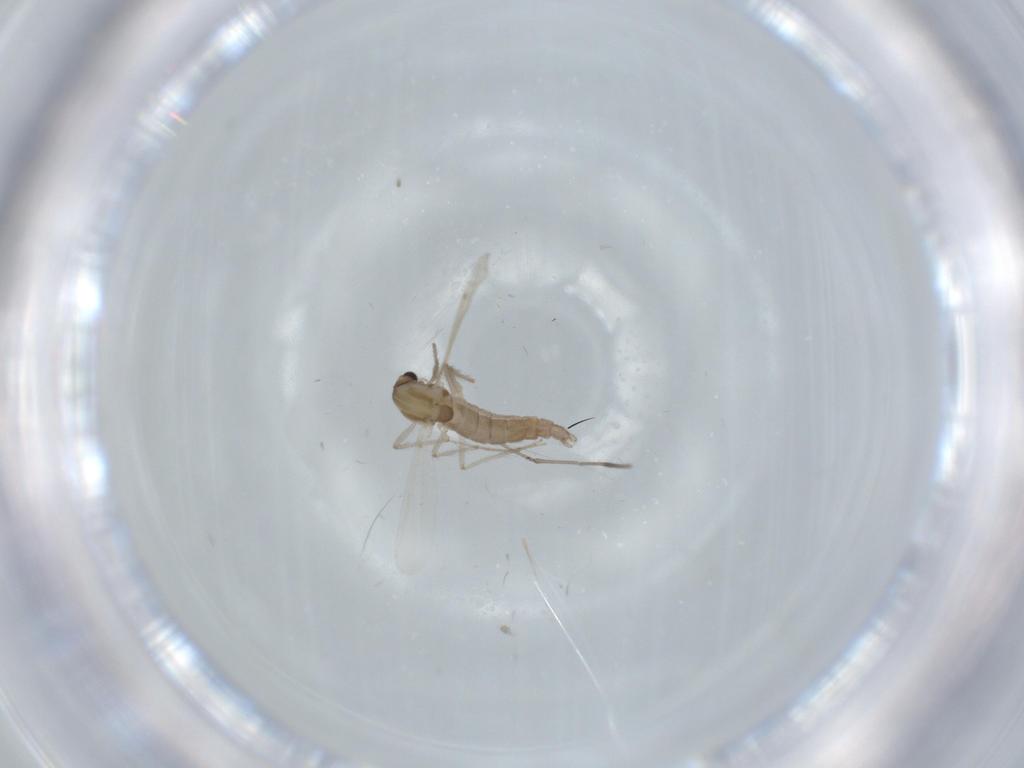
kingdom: Animalia
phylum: Arthropoda
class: Insecta
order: Diptera
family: Chironomidae
